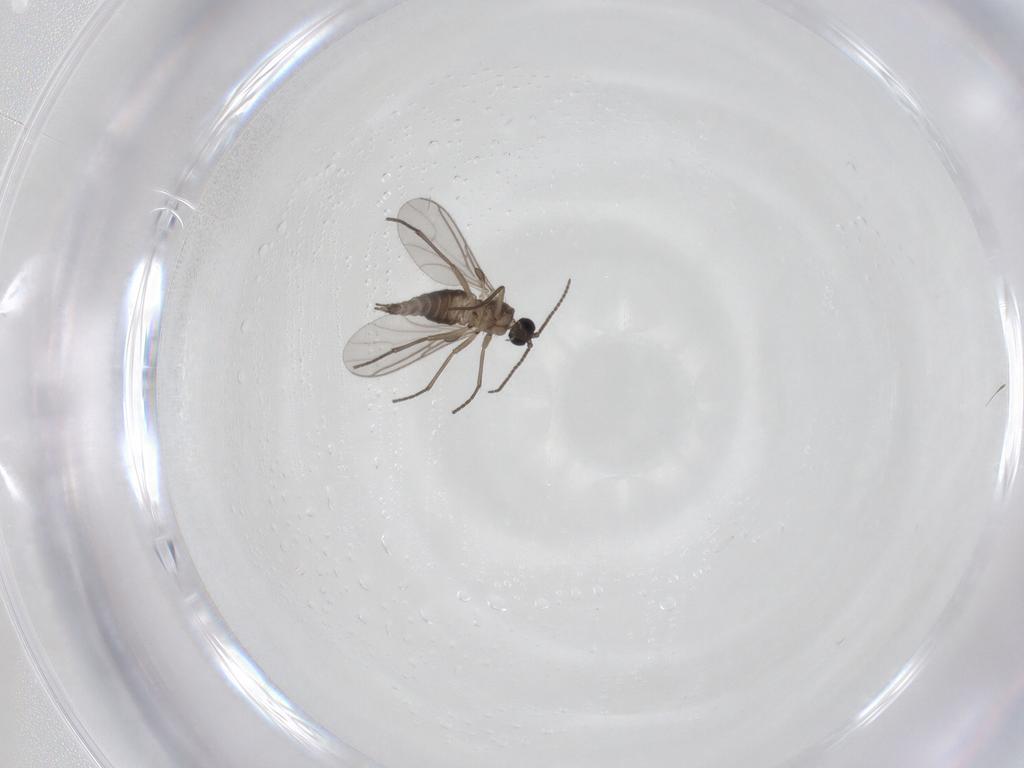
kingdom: Animalia
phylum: Arthropoda
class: Insecta
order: Diptera
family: Sciaridae
